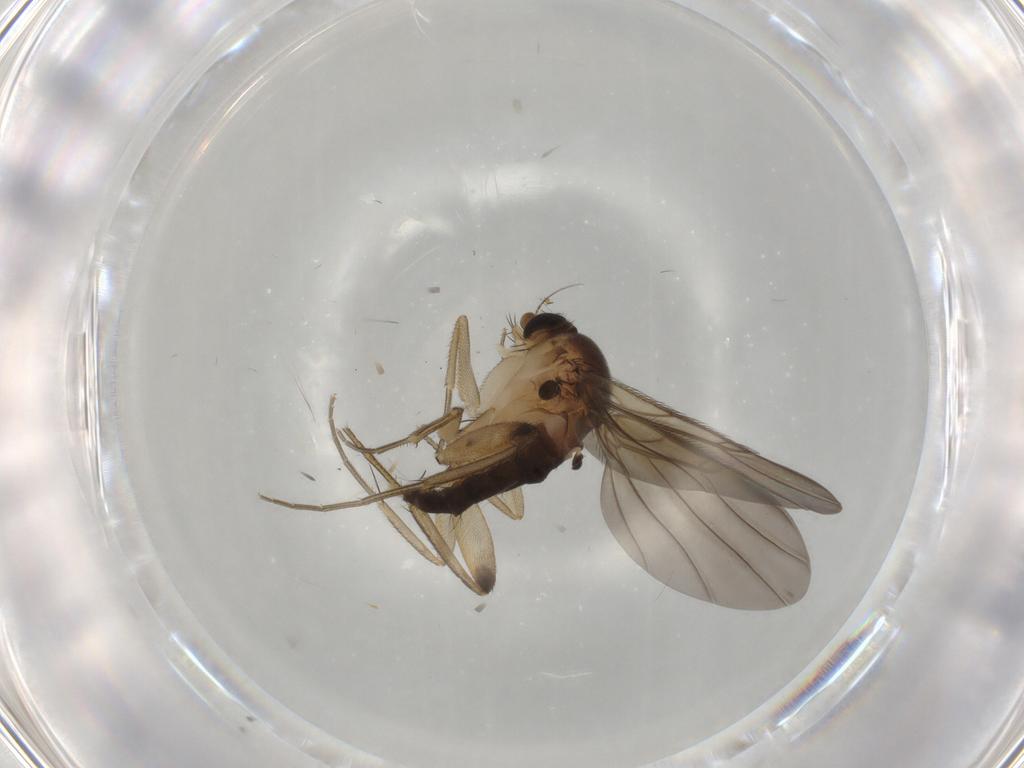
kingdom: Animalia
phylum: Arthropoda
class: Insecta
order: Diptera
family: Phoridae
